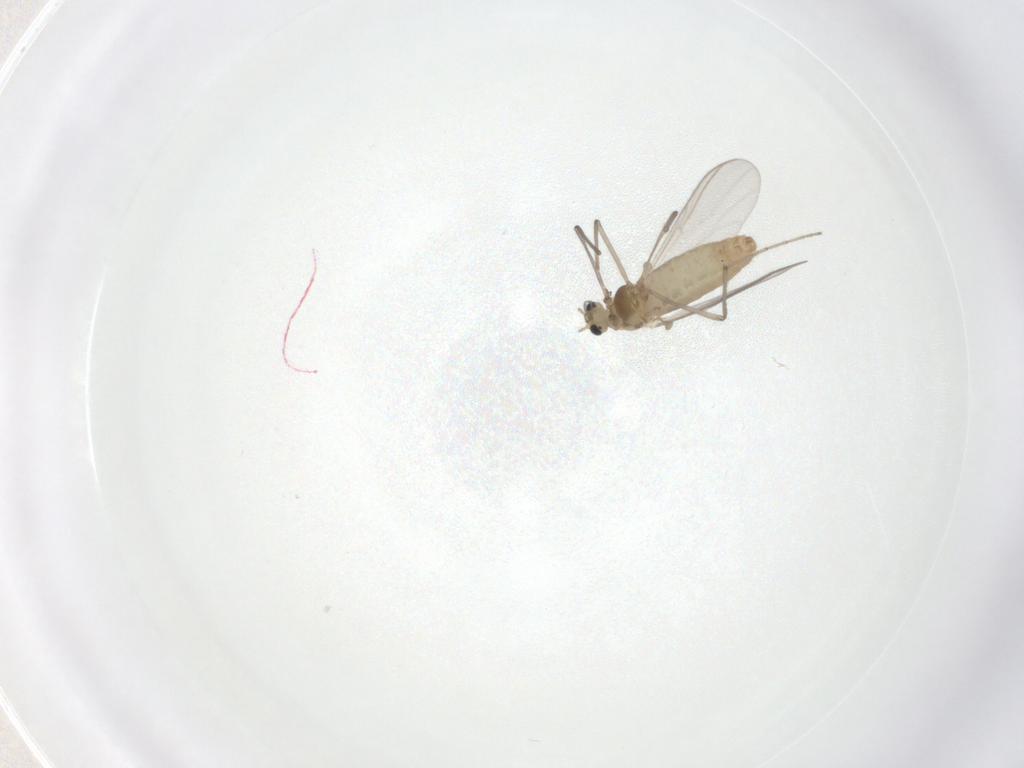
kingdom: Animalia
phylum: Arthropoda
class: Insecta
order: Diptera
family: Chironomidae
